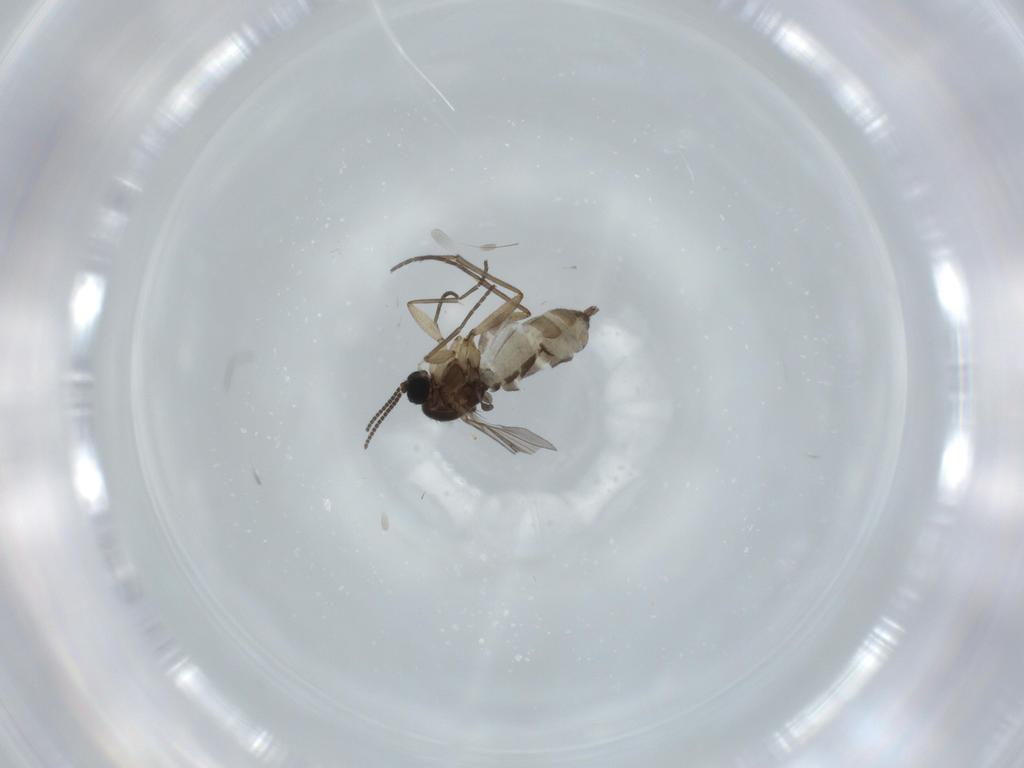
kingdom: Animalia
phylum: Arthropoda
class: Insecta
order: Diptera
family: Sciaridae
